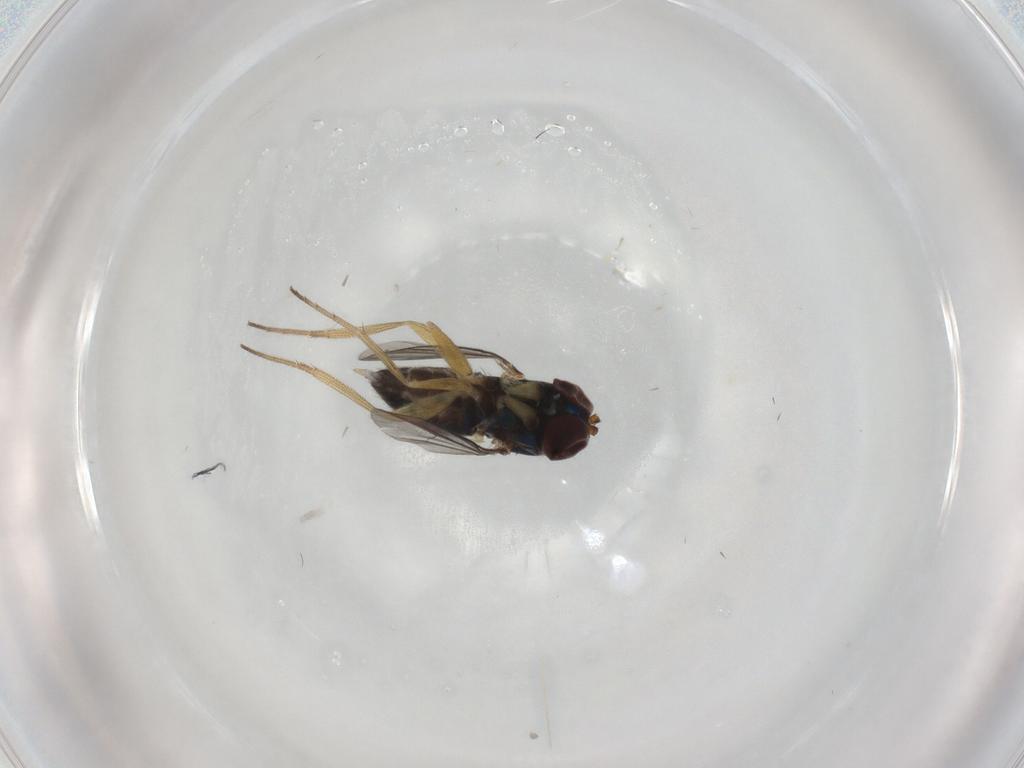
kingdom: Animalia
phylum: Arthropoda
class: Insecta
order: Diptera
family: Dolichopodidae
